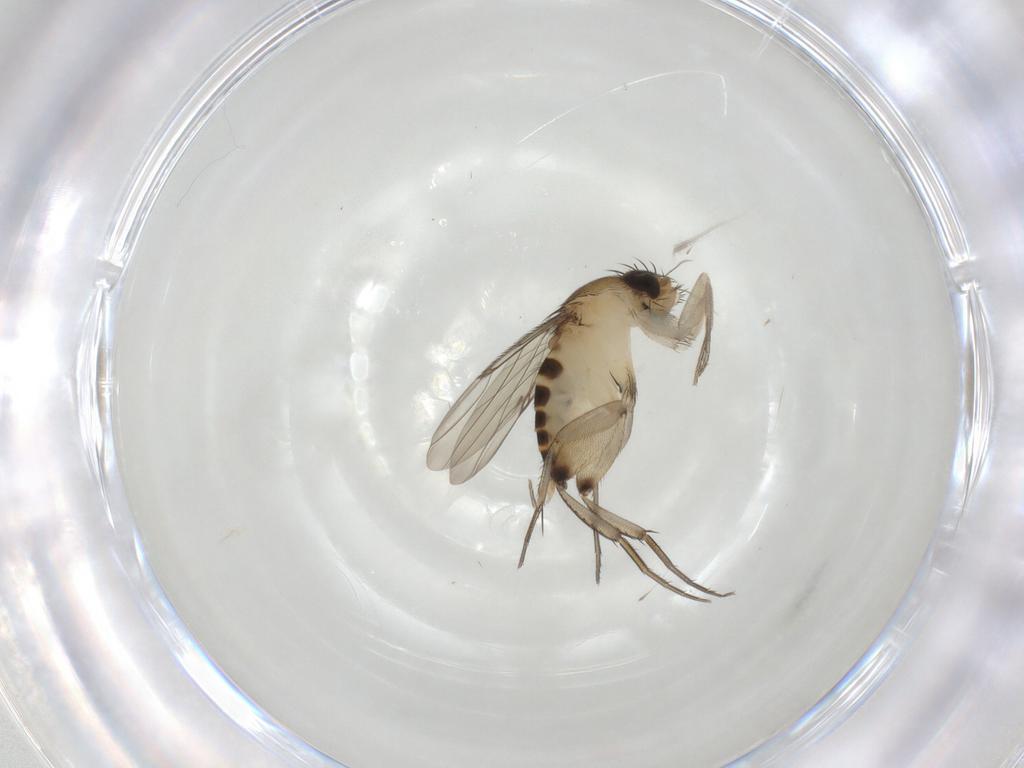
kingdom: Animalia
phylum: Arthropoda
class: Insecta
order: Diptera
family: Phoridae
